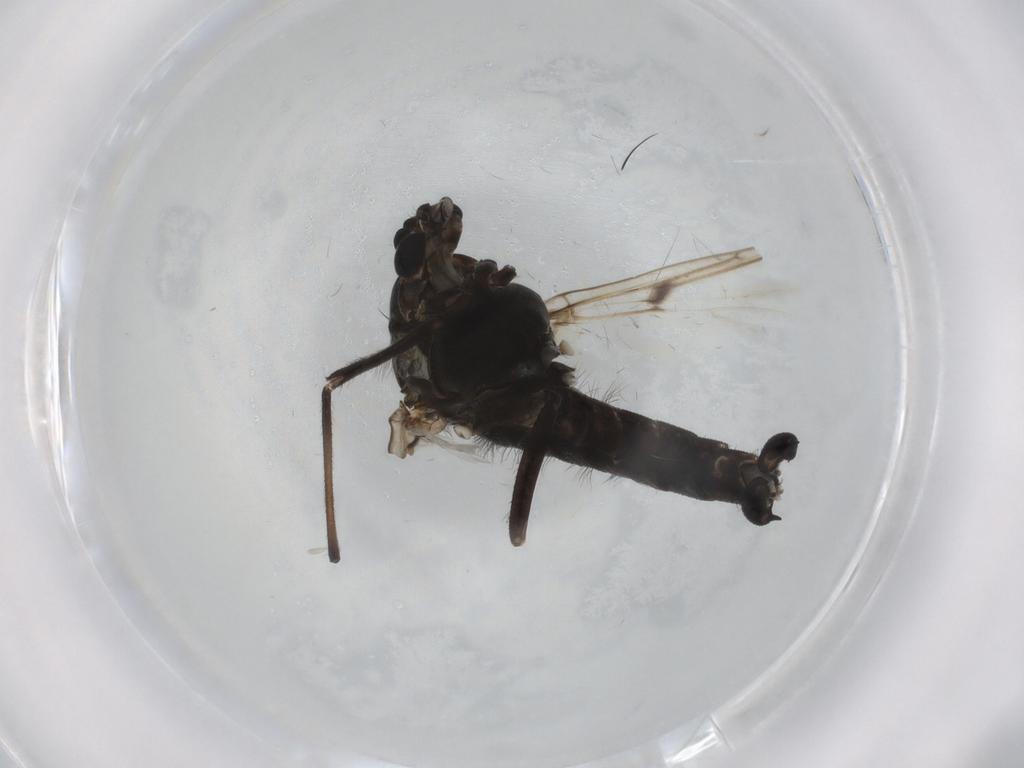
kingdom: Animalia
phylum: Arthropoda
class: Insecta
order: Diptera
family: Chironomidae
